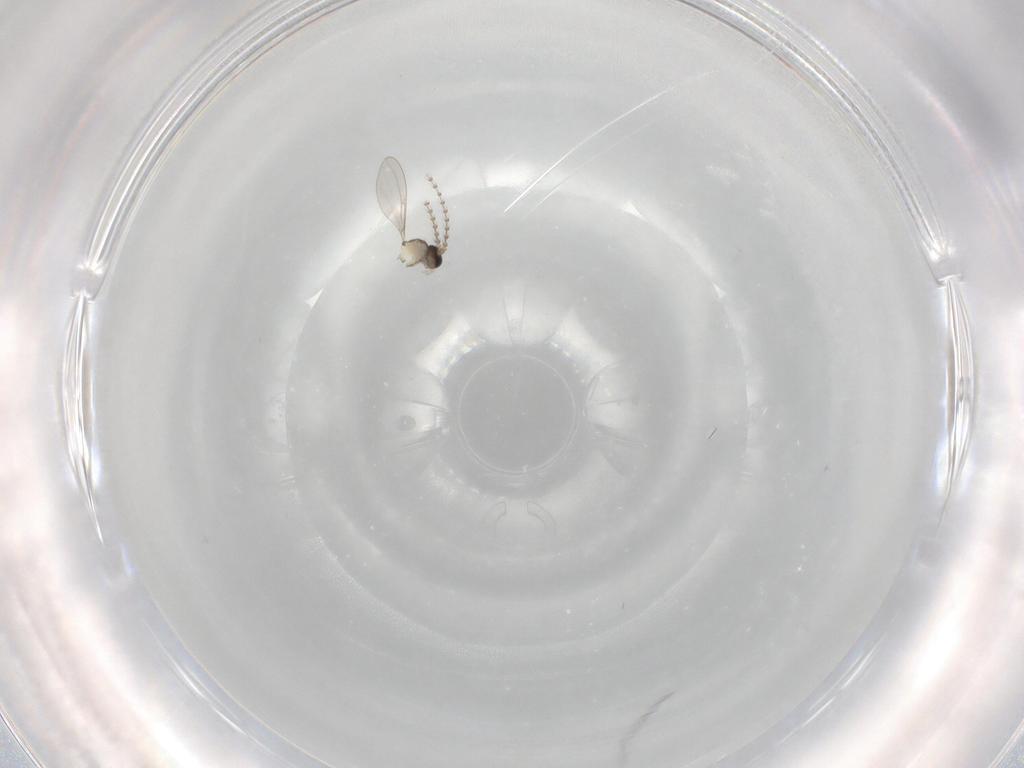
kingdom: Animalia
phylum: Arthropoda
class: Insecta
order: Diptera
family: Cecidomyiidae
